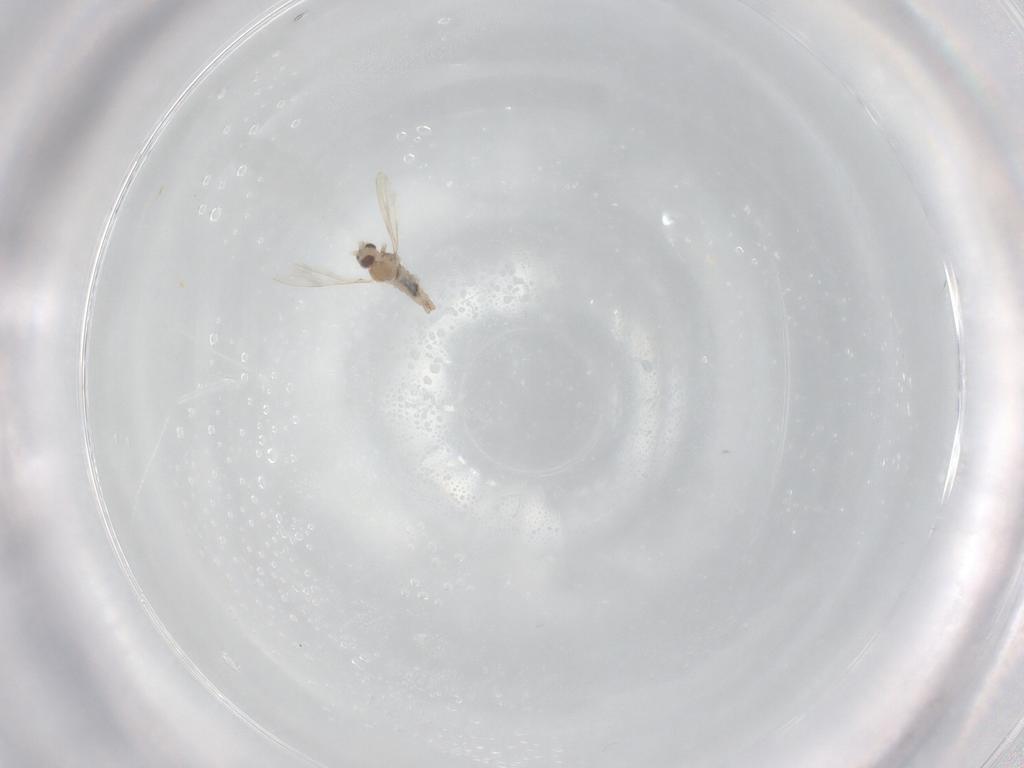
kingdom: Animalia
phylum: Arthropoda
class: Insecta
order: Diptera
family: Cecidomyiidae
